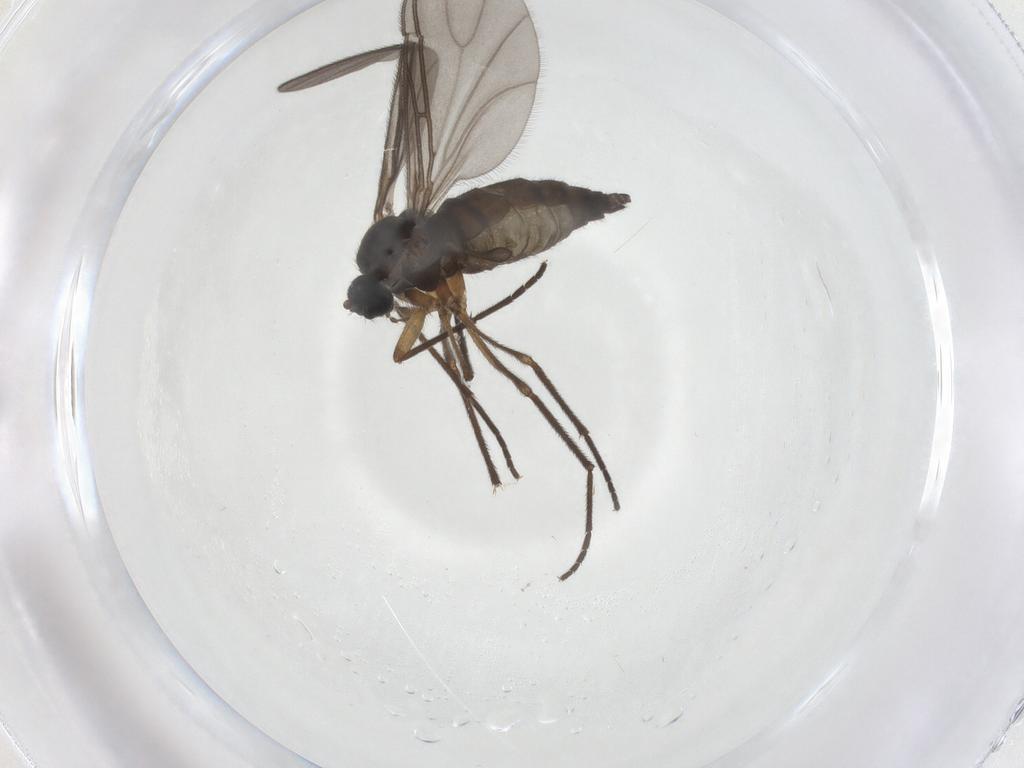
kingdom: Animalia
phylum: Arthropoda
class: Insecta
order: Diptera
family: Sciaridae
